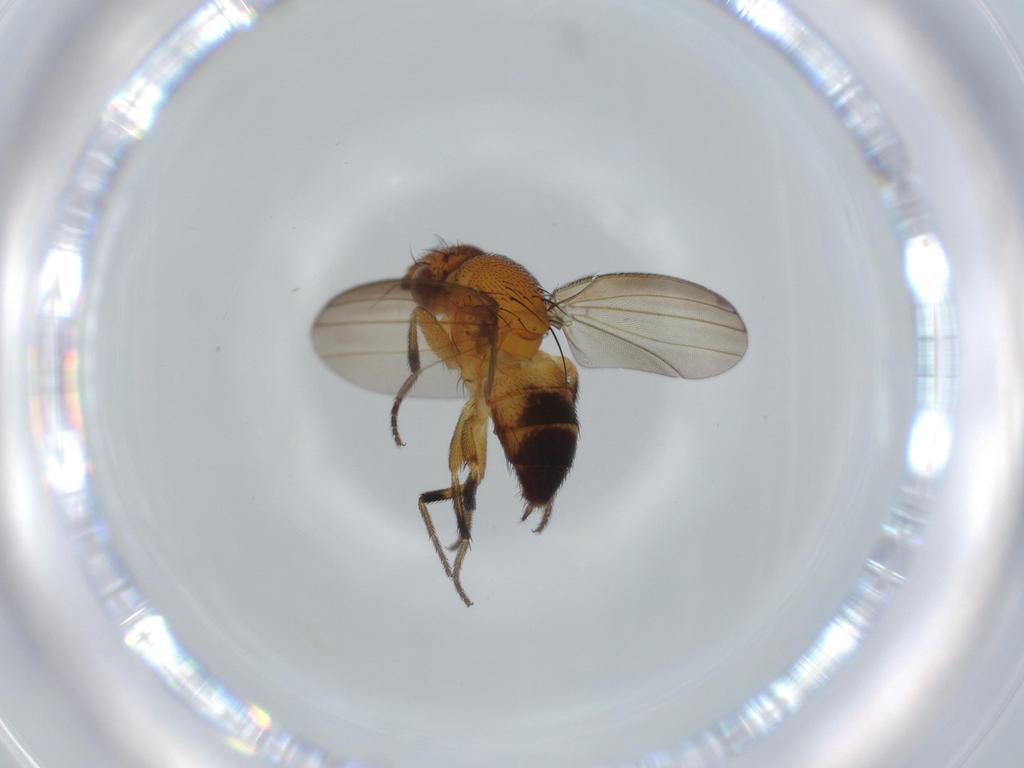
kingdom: Animalia
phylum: Arthropoda
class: Insecta
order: Diptera
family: Milichiidae
